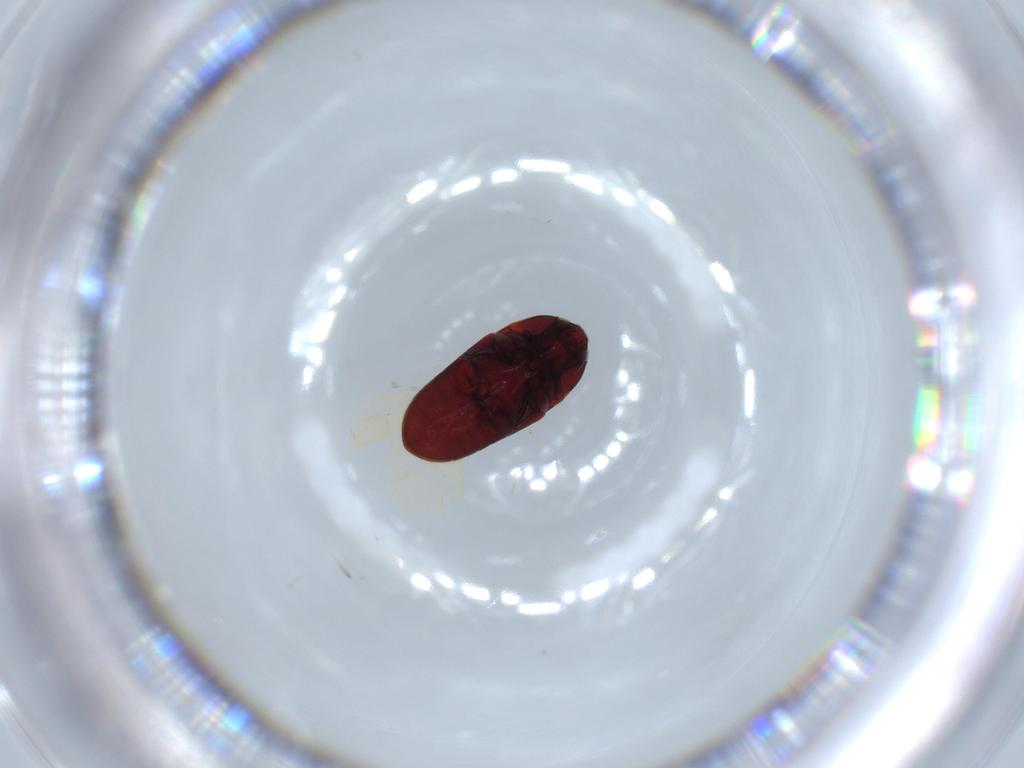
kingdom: Animalia
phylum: Arthropoda
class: Insecta
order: Coleoptera
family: Throscidae
